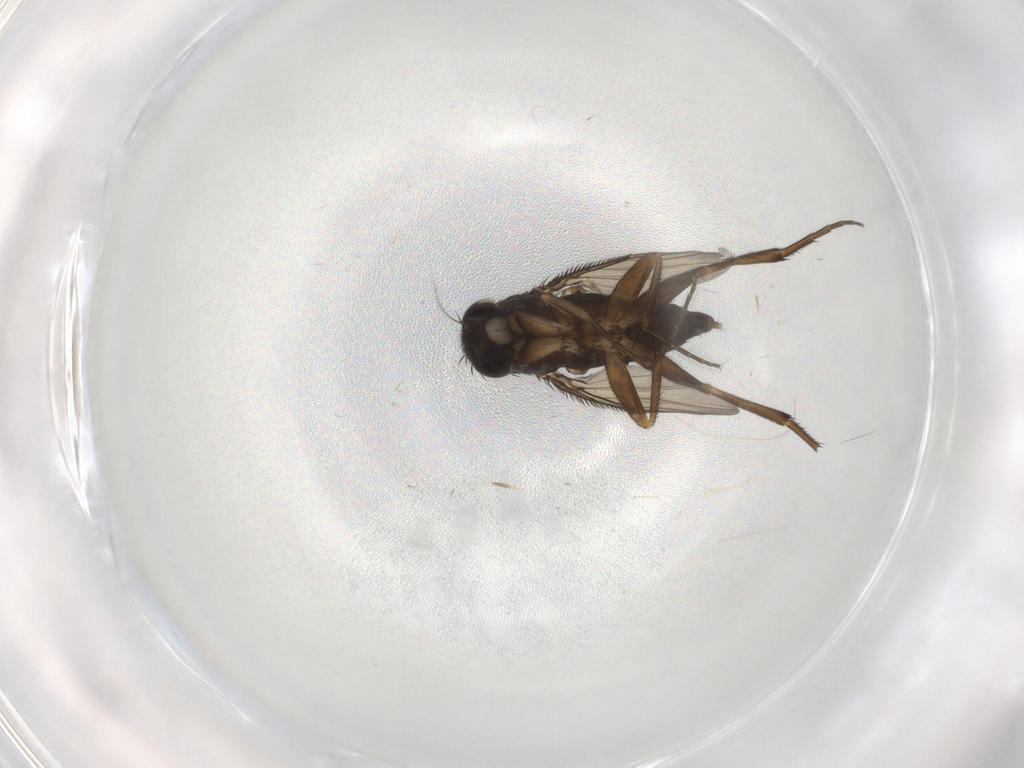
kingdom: Animalia
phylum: Arthropoda
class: Insecta
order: Diptera
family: Phoridae
